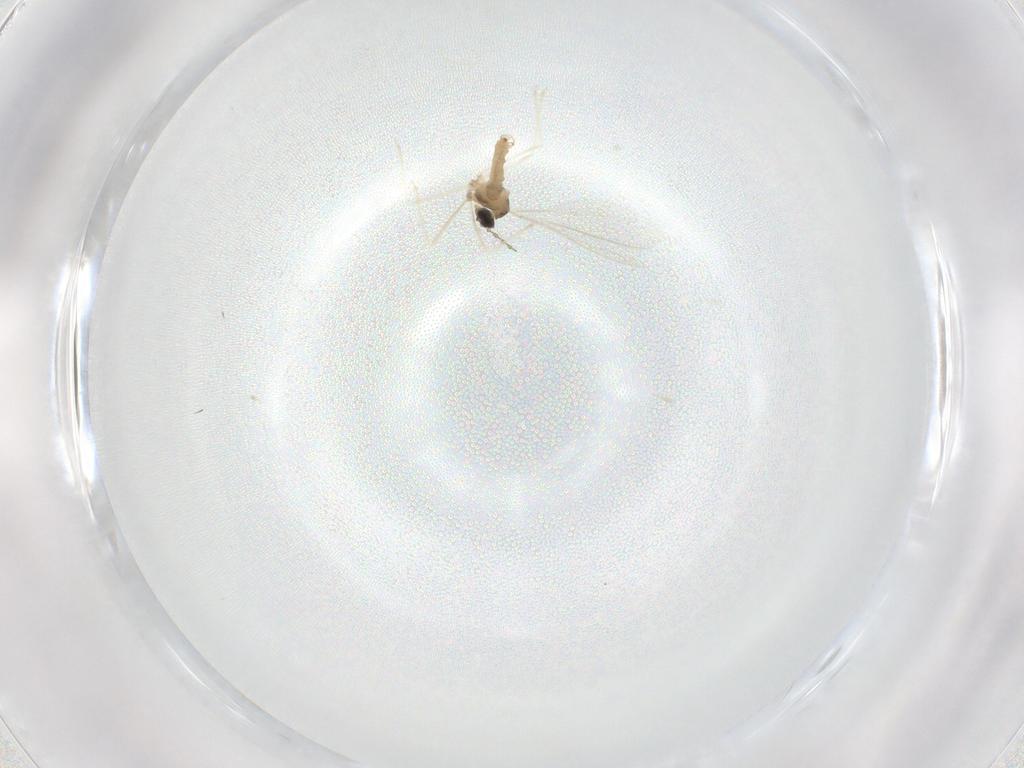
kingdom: Animalia
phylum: Arthropoda
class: Insecta
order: Diptera
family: Cecidomyiidae
